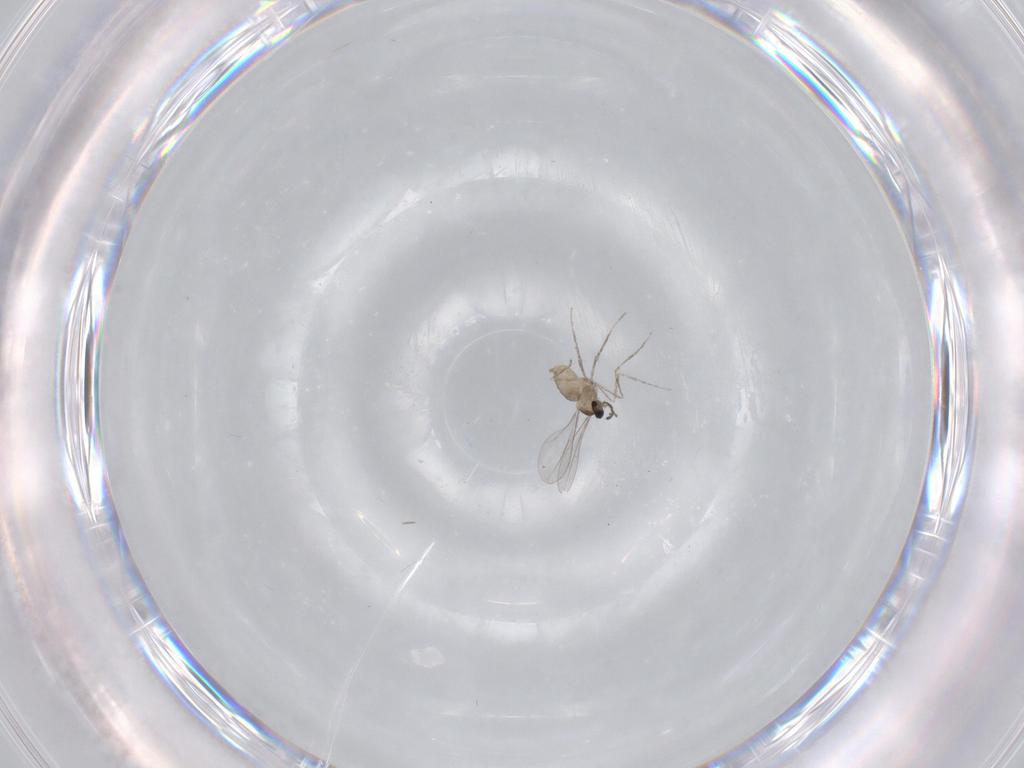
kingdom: Animalia
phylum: Arthropoda
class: Insecta
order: Diptera
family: Cecidomyiidae
